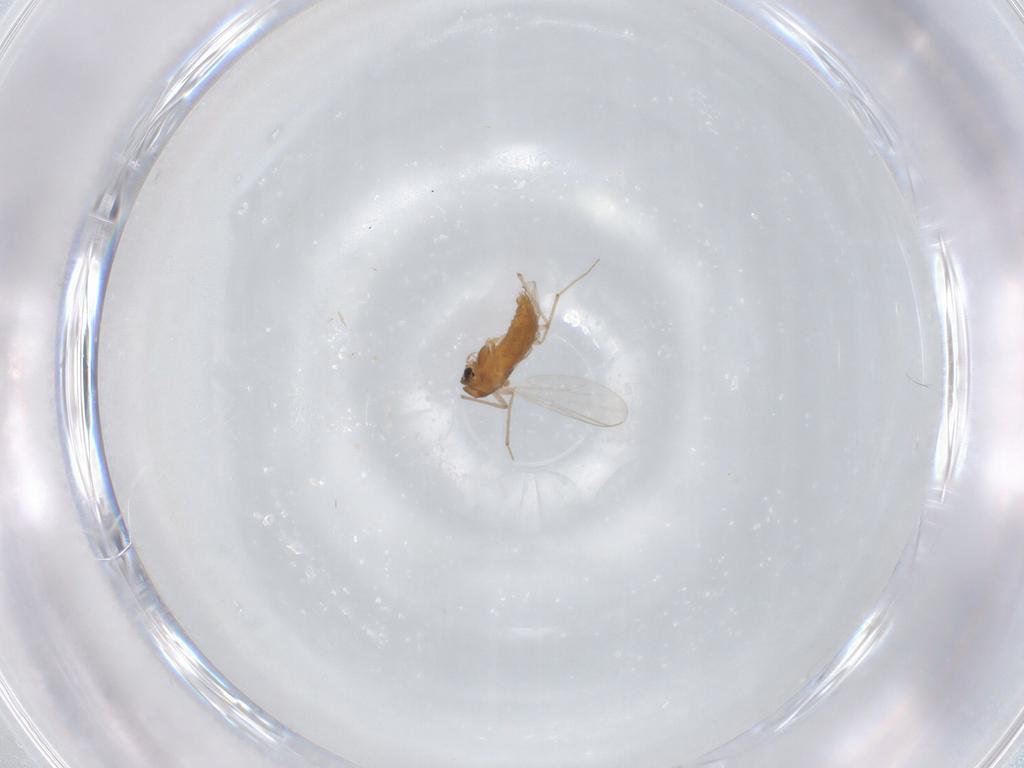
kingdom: Animalia
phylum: Arthropoda
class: Insecta
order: Diptera
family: Chironomidae
